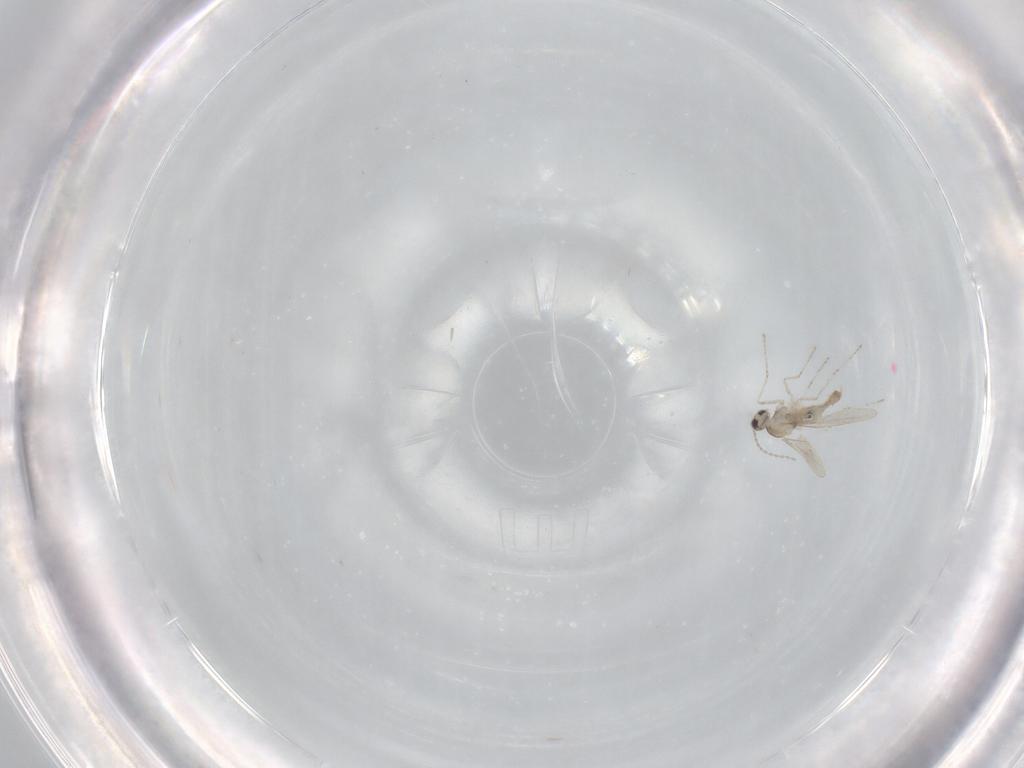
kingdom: Animalia
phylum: Arthropoda
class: Insecta
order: Diptera
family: Cecidomyiidae
